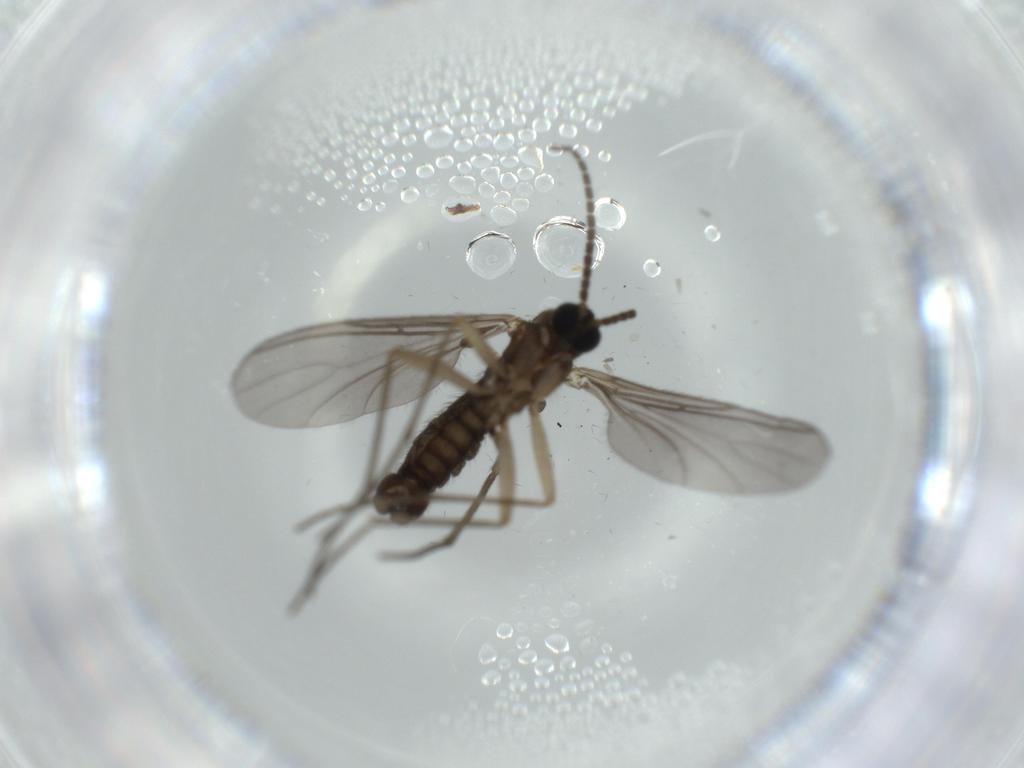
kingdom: Animalia
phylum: Arthropoda
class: Insecta
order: Diptera
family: Sciaridae
